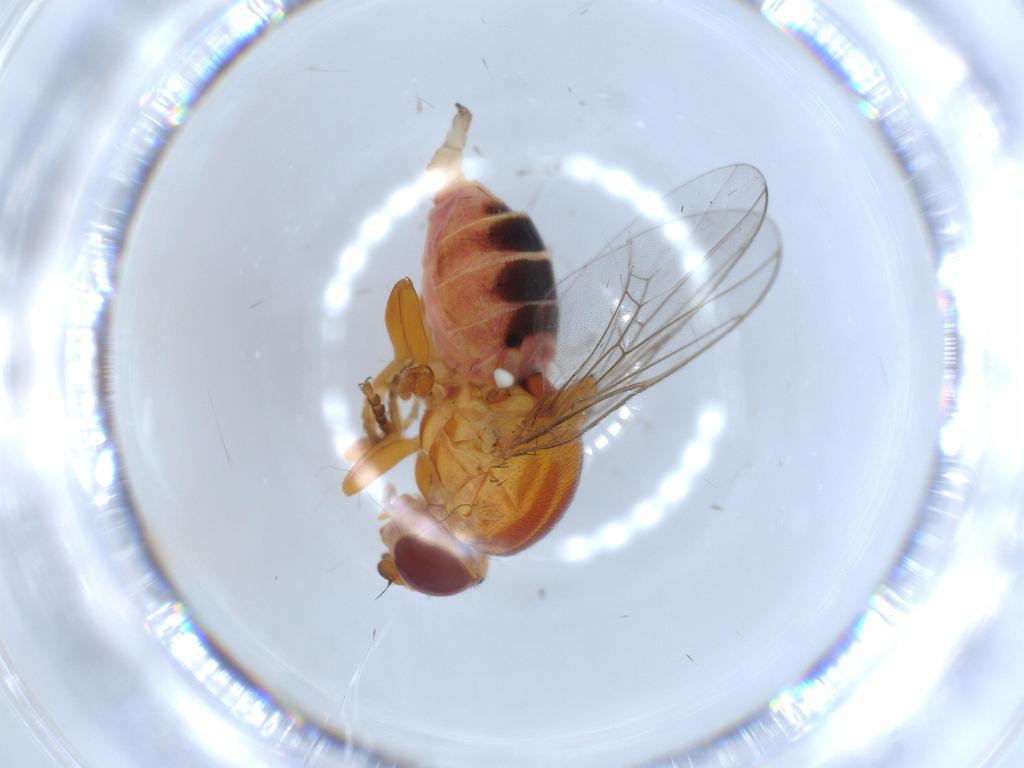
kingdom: Animalia
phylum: Arthropoda
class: Insecta
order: Diptera
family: Chloropidae
